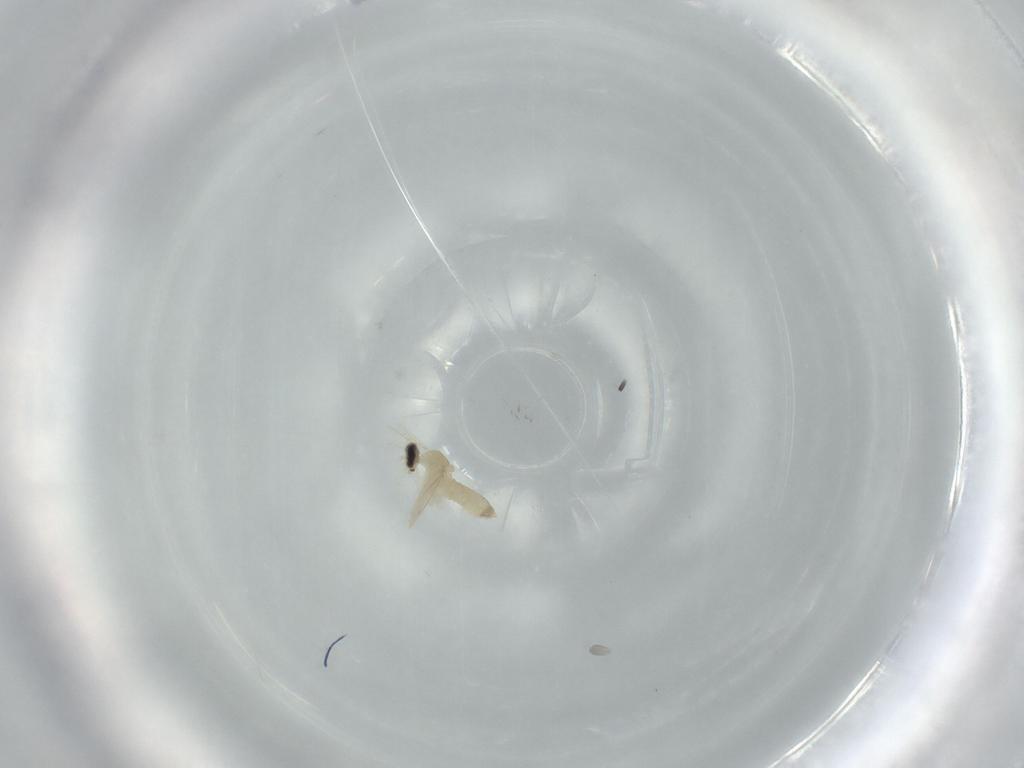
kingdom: Animalia
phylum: Arthropoda
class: Insecta
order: Diptera
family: Cecidomyiidae
